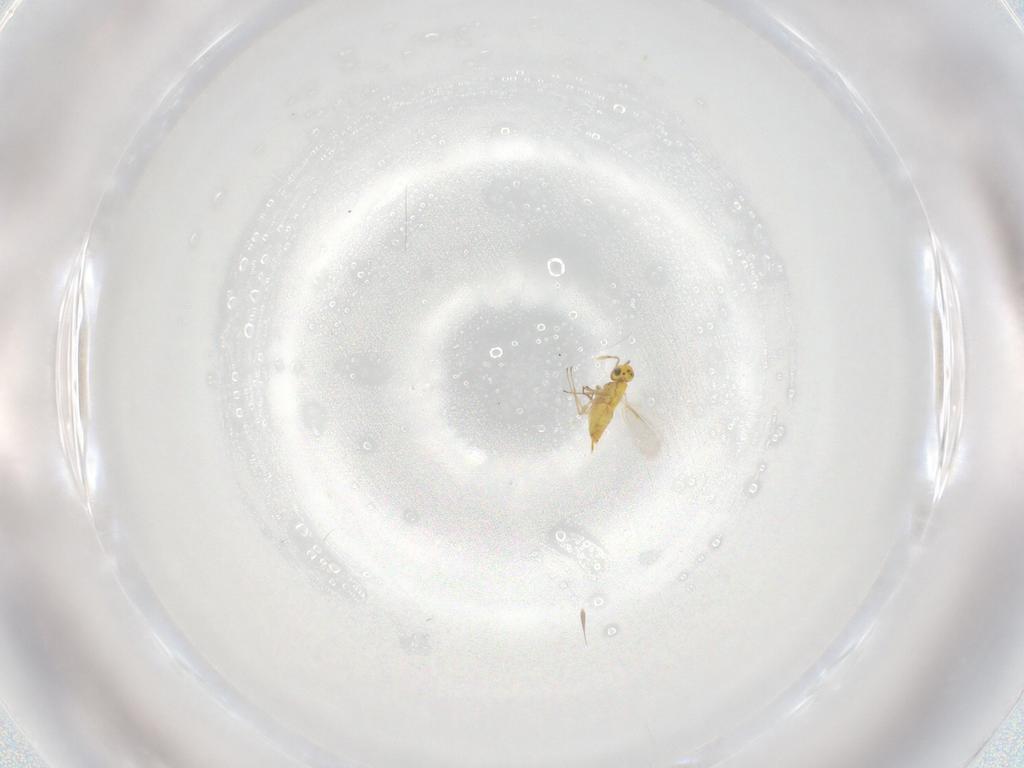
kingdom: Animalia
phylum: Arthropoda
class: Insecta
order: Hymenoptera
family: Aphelinidae
